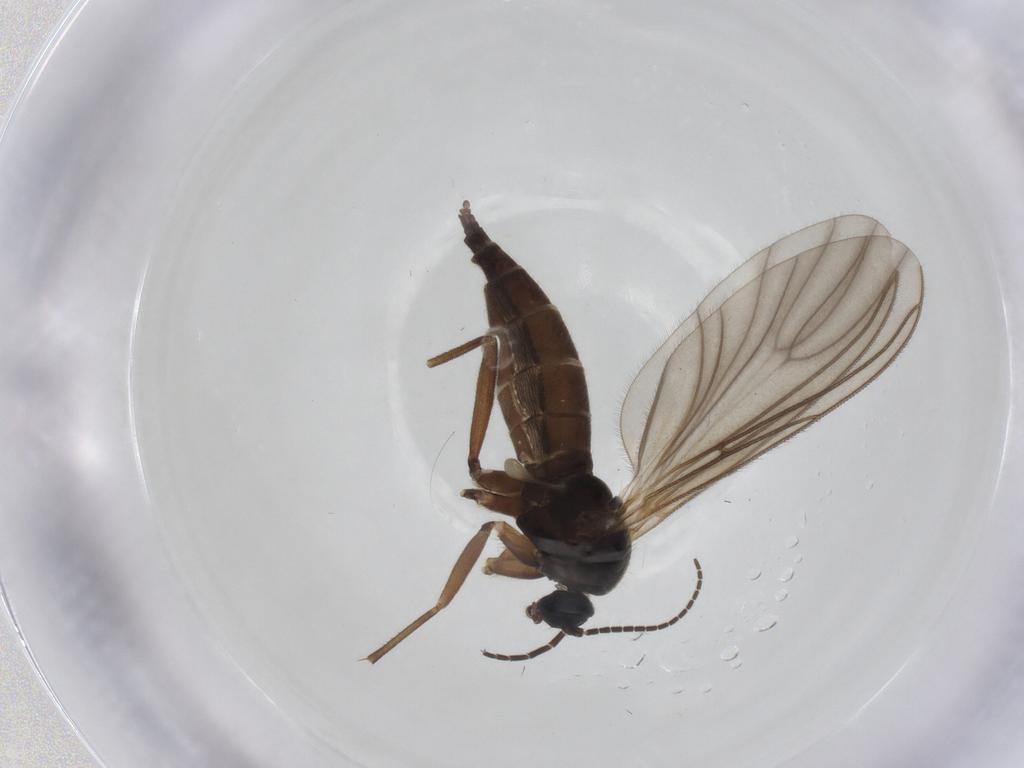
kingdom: Animalia
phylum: Arthropoda
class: Insecta
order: Diptera
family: Sciaridae
